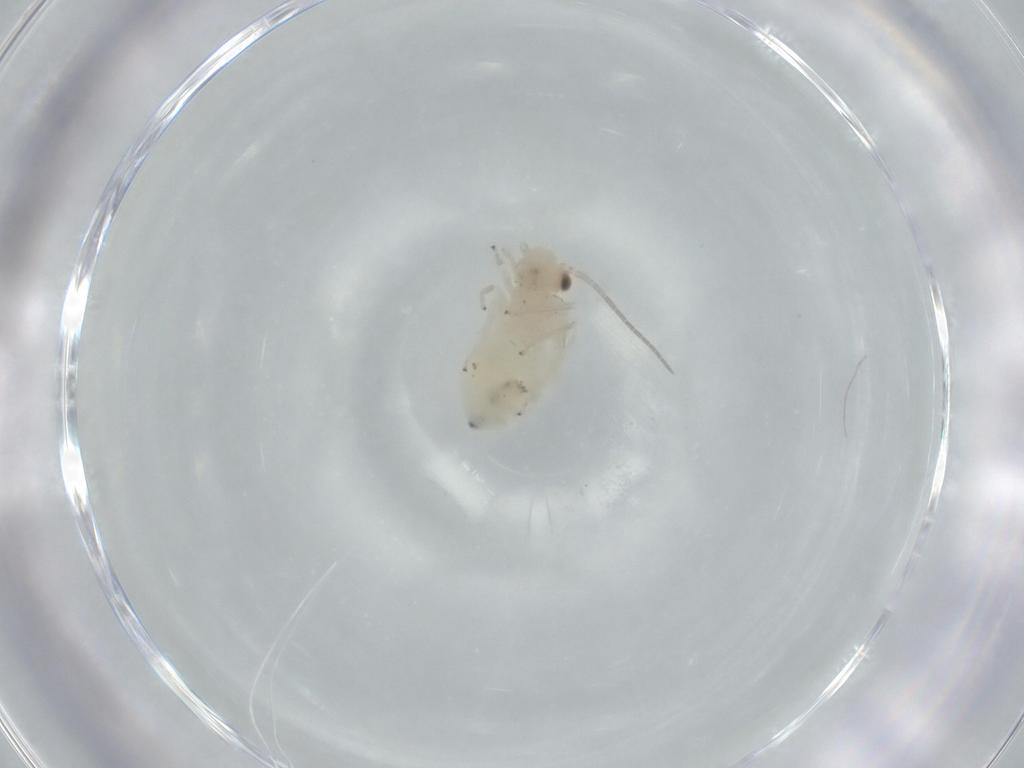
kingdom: Animalia
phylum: Arthropoda
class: Insecta
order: Psocodea
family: Caeciliusidae
